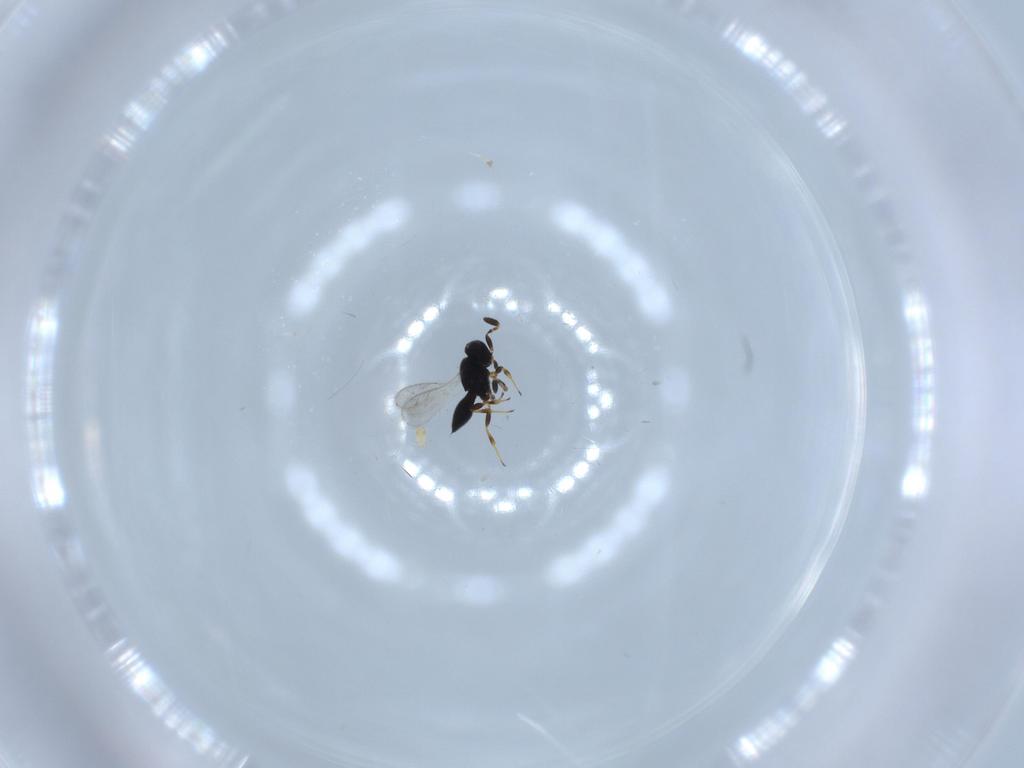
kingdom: Animalia
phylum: Arthropoda
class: Insecta
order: Hymenoptera
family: Scelionidae
